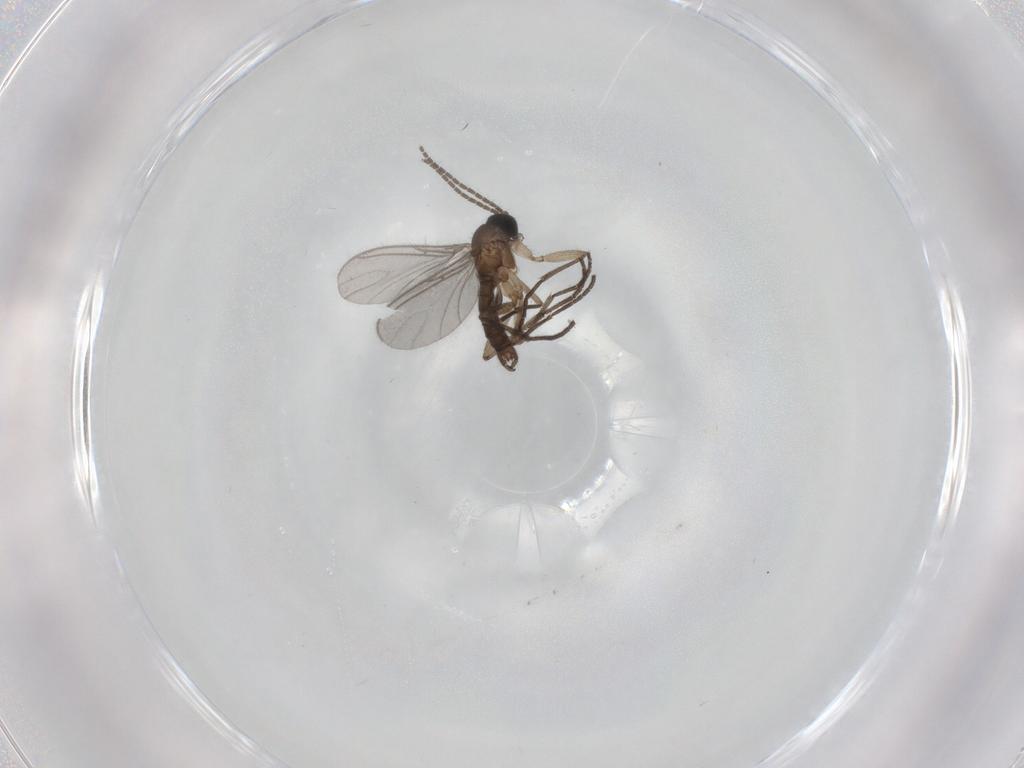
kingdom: Animalia
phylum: Arthropoda
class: Insecta
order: Diptera
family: Sciaridae
